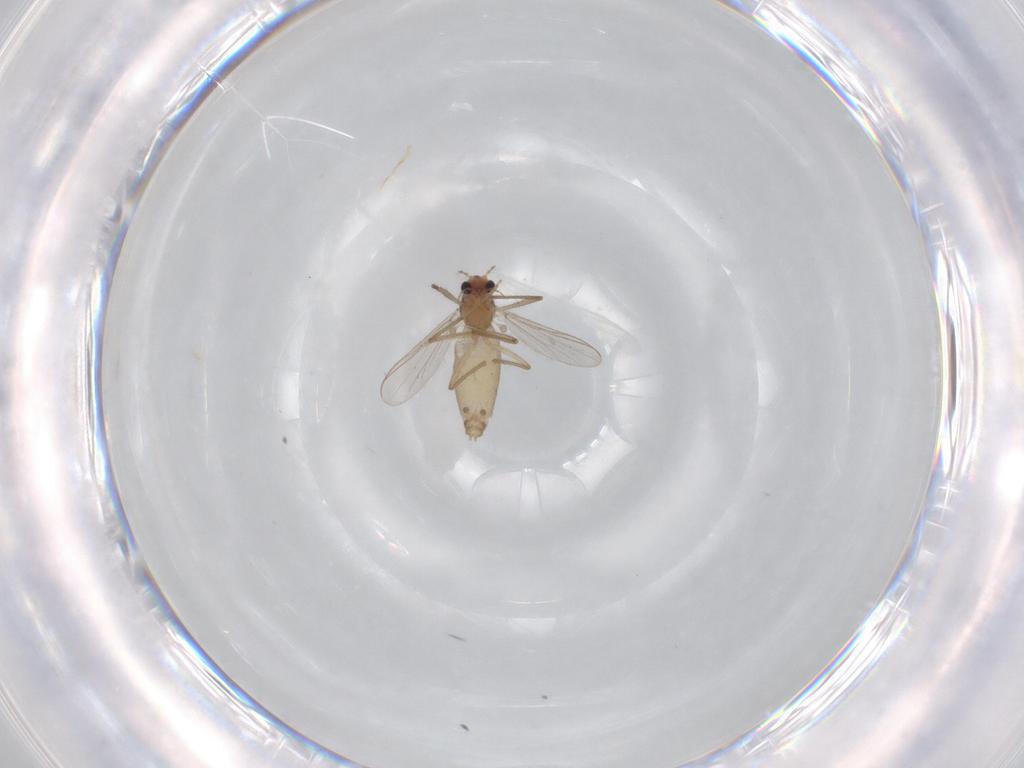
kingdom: Animalia
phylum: Arthropoda
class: Insecta
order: Diptera
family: Chironomidae
